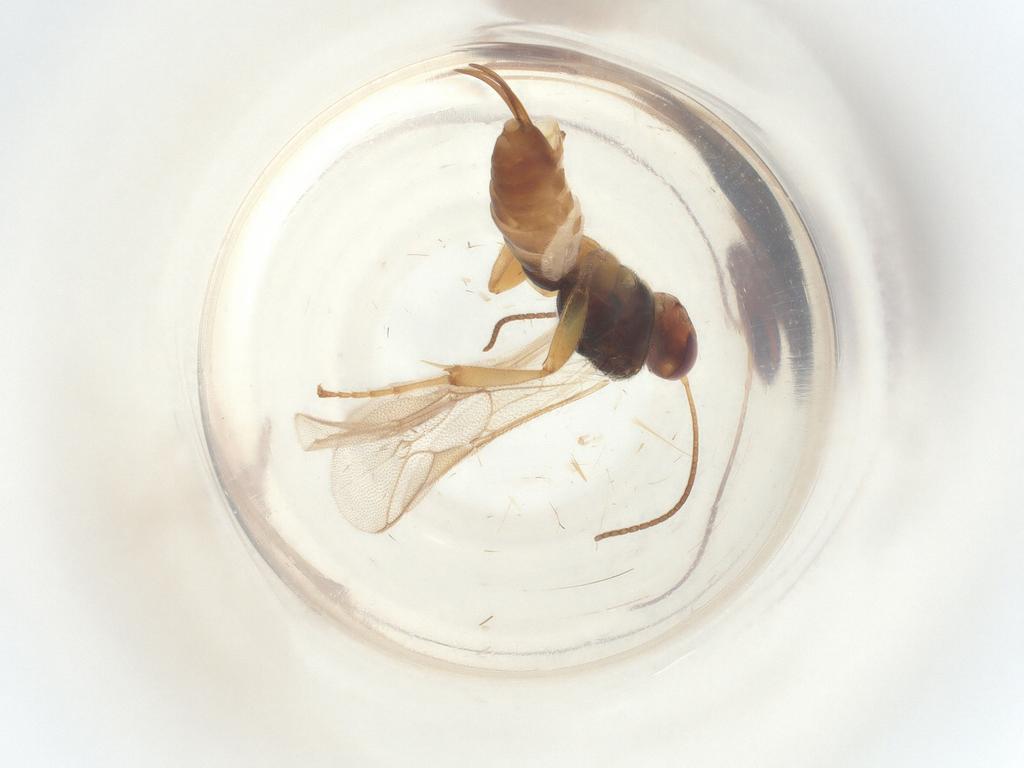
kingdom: Animalia
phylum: Arthropoda
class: Insecta
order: Hymenoptera
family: Ichneumonidae
